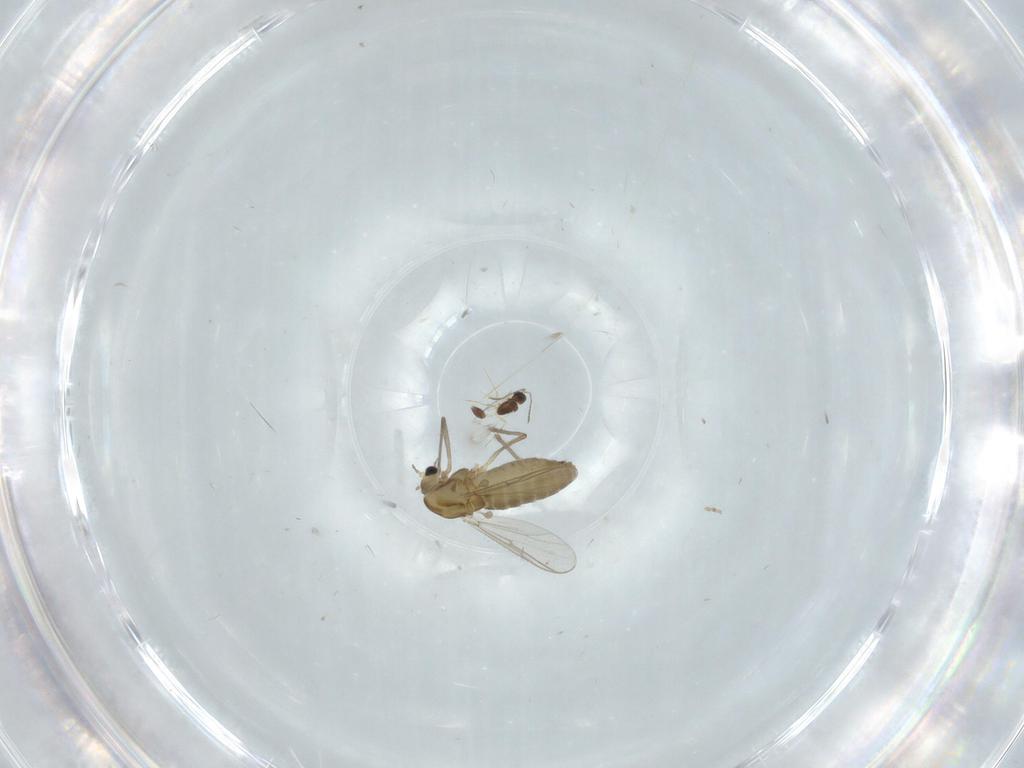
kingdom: Animalia
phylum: Arthropoda
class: Insecta
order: Diptera
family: Chironomidae
